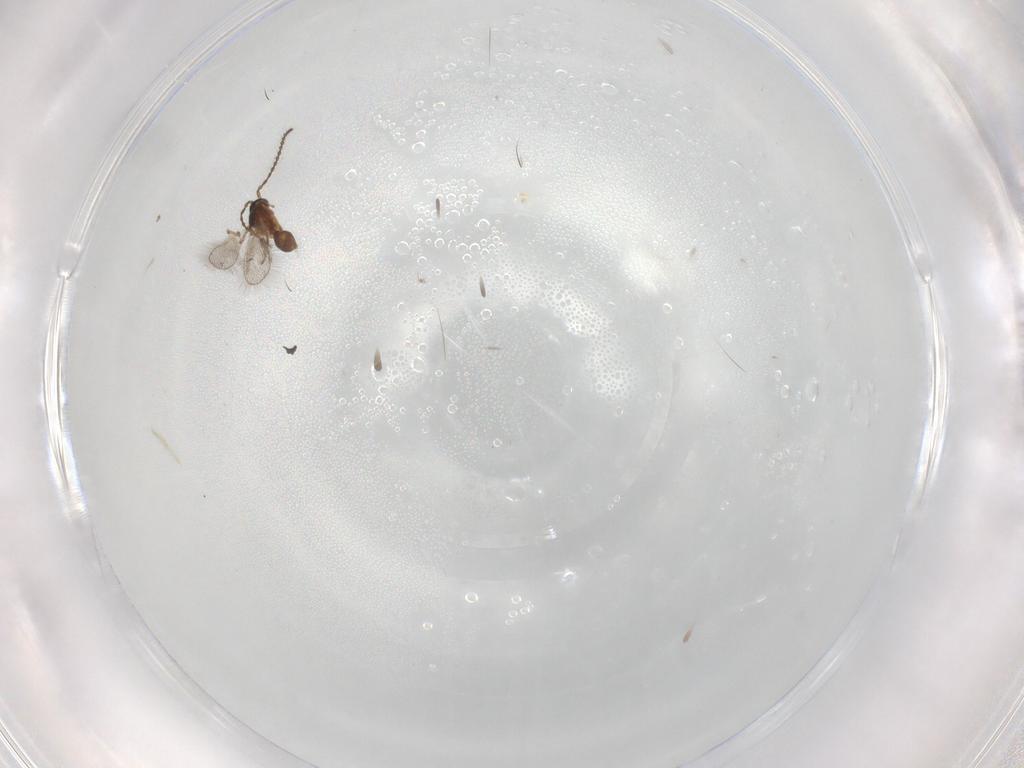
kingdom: Animalia
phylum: Arthropoda
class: Insecta
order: Hymenoptera
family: Diapriidae
